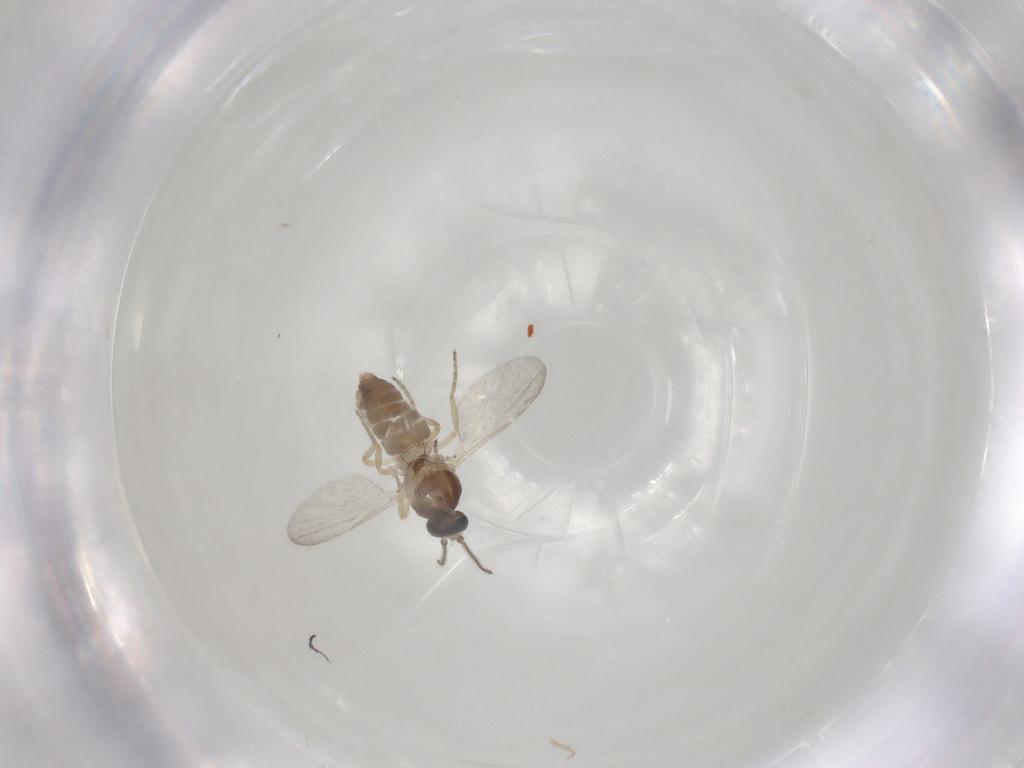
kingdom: Animalia
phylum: Arthropoda
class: Insecta
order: Diptera
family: Ceratopogonidae
